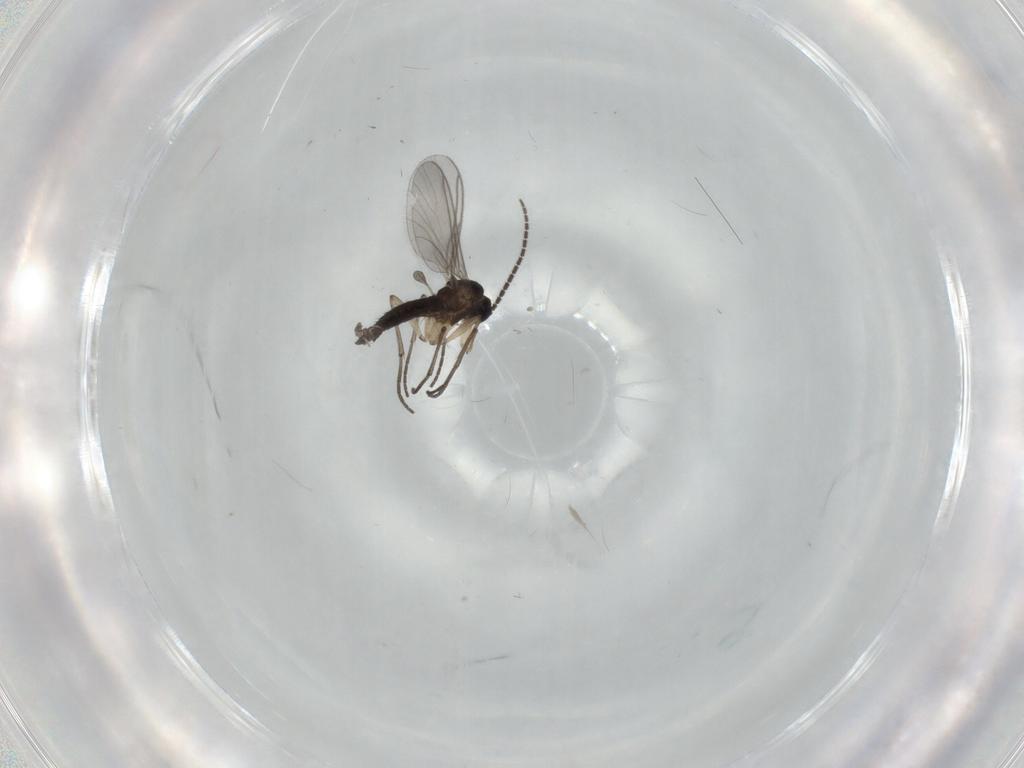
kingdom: Animalia
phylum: Arthropoda
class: Insecta
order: Diptera
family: Sciaridae
